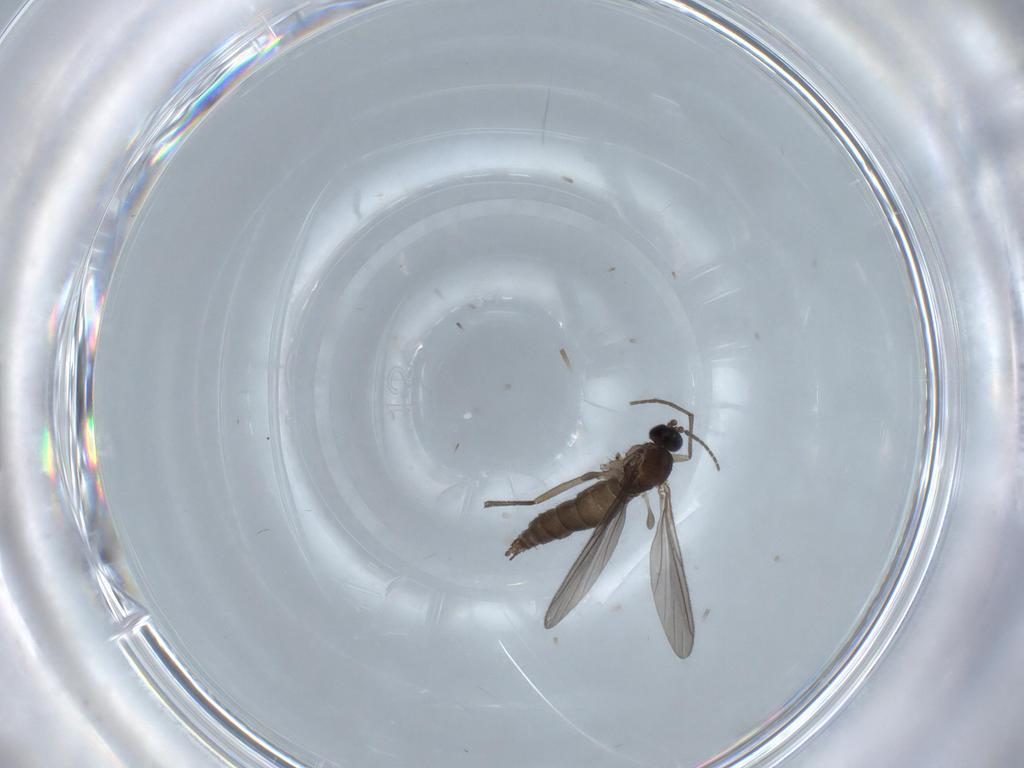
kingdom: Animalia
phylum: Arthropoda
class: Insecta
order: Diptera
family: Sciaridae
